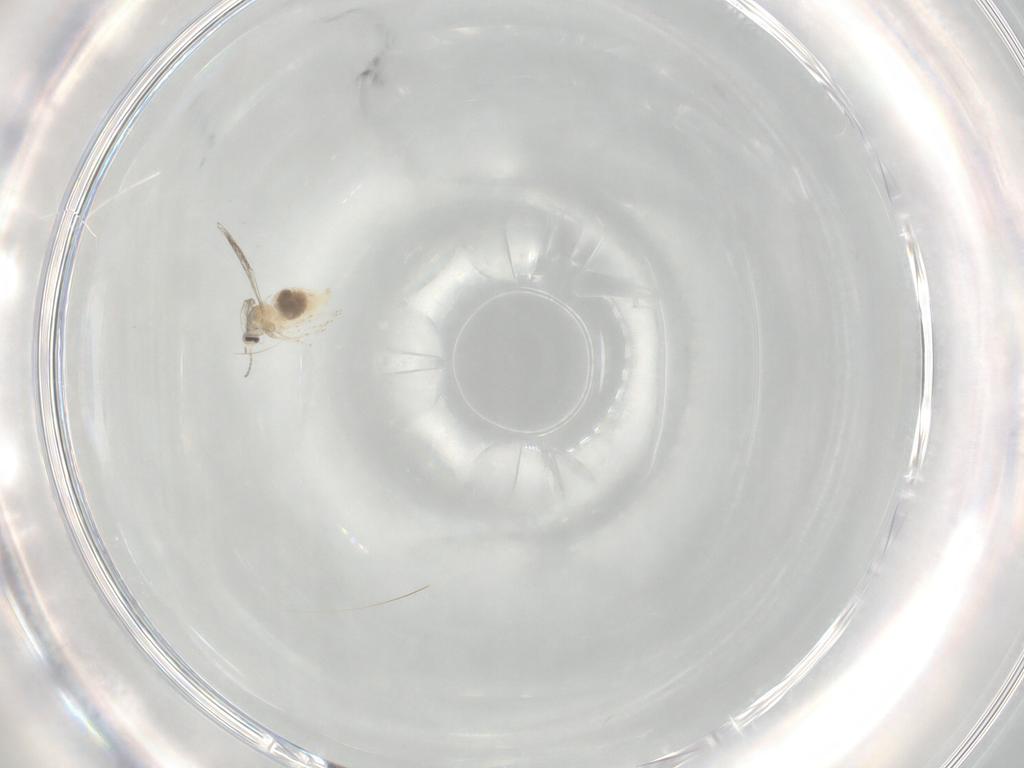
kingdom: Animalia
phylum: Arthropoda
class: Insecta
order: Diptera
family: Cecidomyiidae
